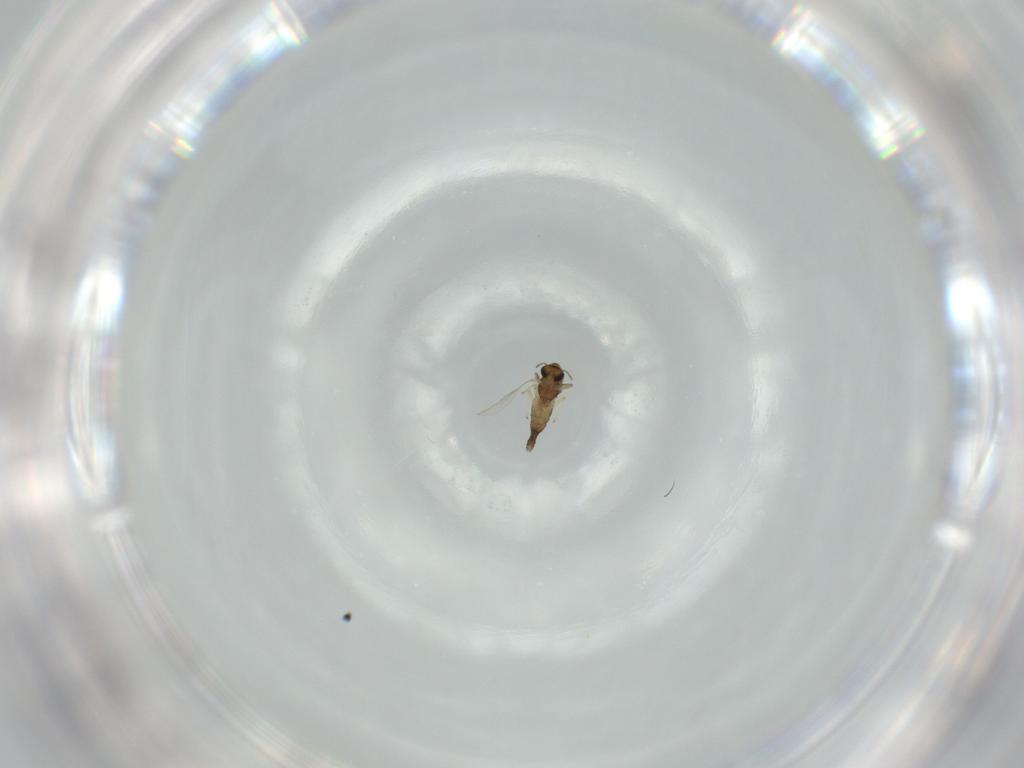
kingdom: Animalia
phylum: Arthropoda
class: Insecta
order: Diptera
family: Chironomidae
